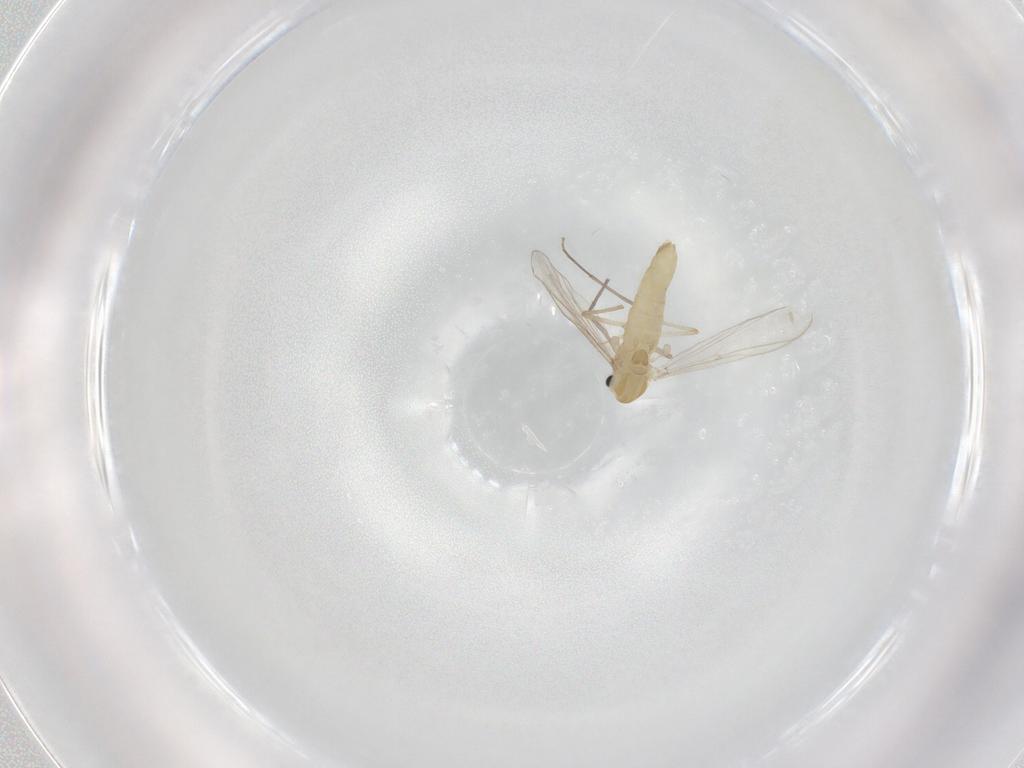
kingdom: Animalia
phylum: Arthropoda
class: Insecta
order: Diptera
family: Chironomidae
